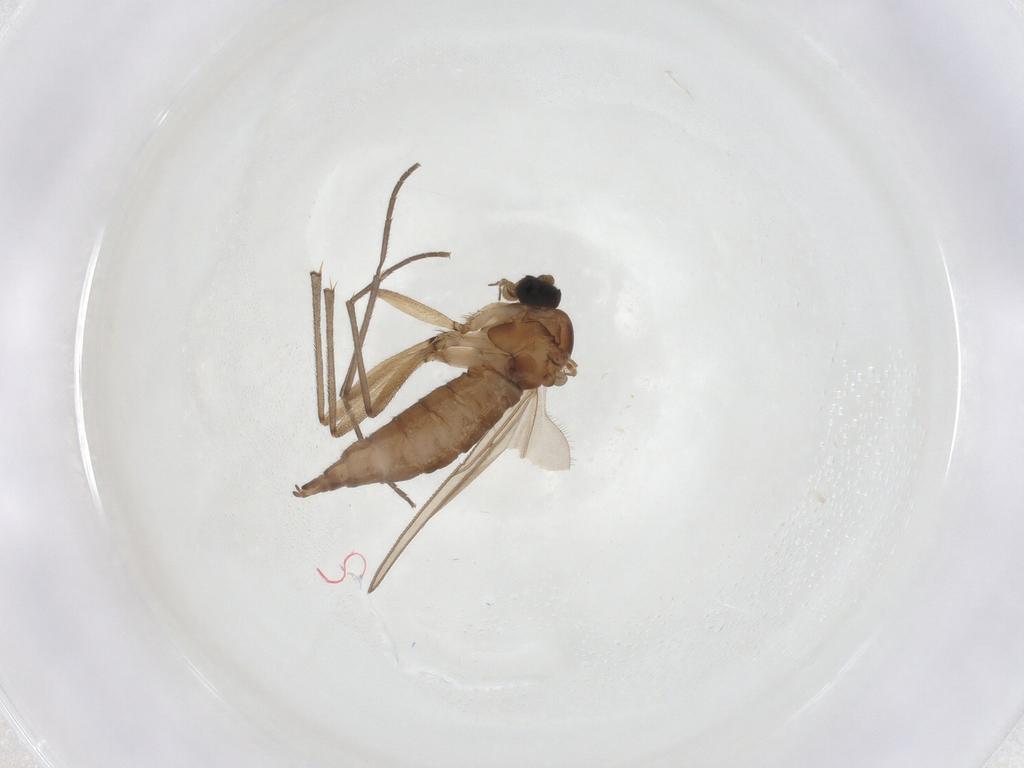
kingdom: Animalia
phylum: Arthropoda
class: Insecta
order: Diptera
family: Sciaridae
